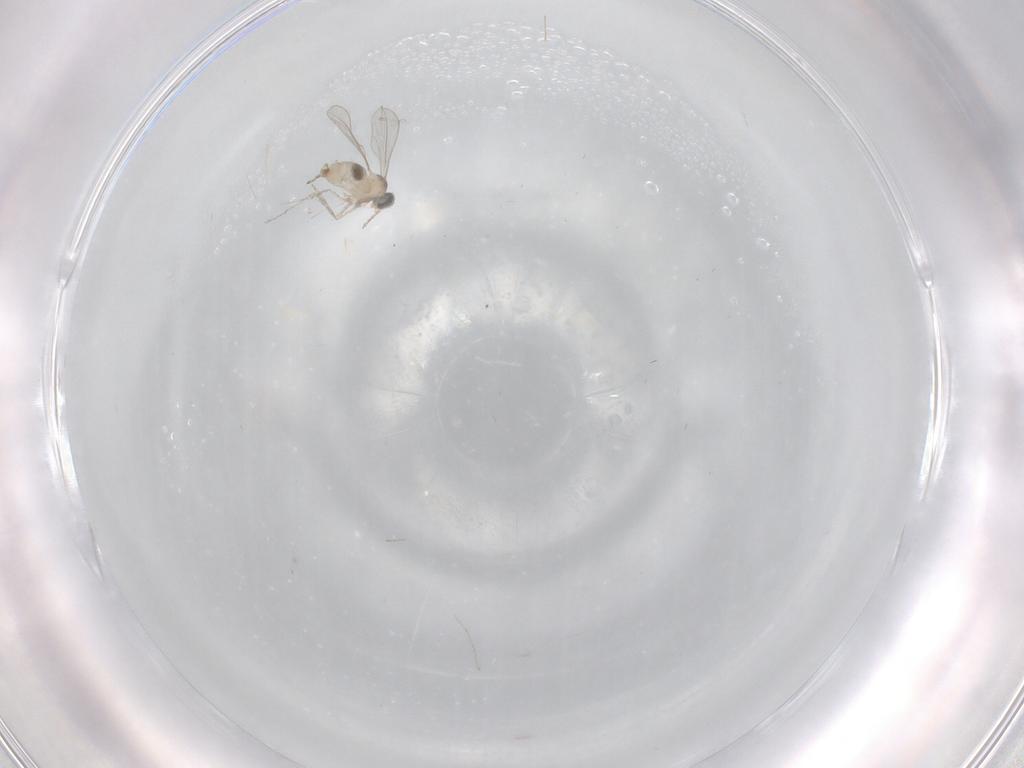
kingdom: Animalia
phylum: Arthropoda
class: Insecta
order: Diptera
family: Cecidomyiidae
